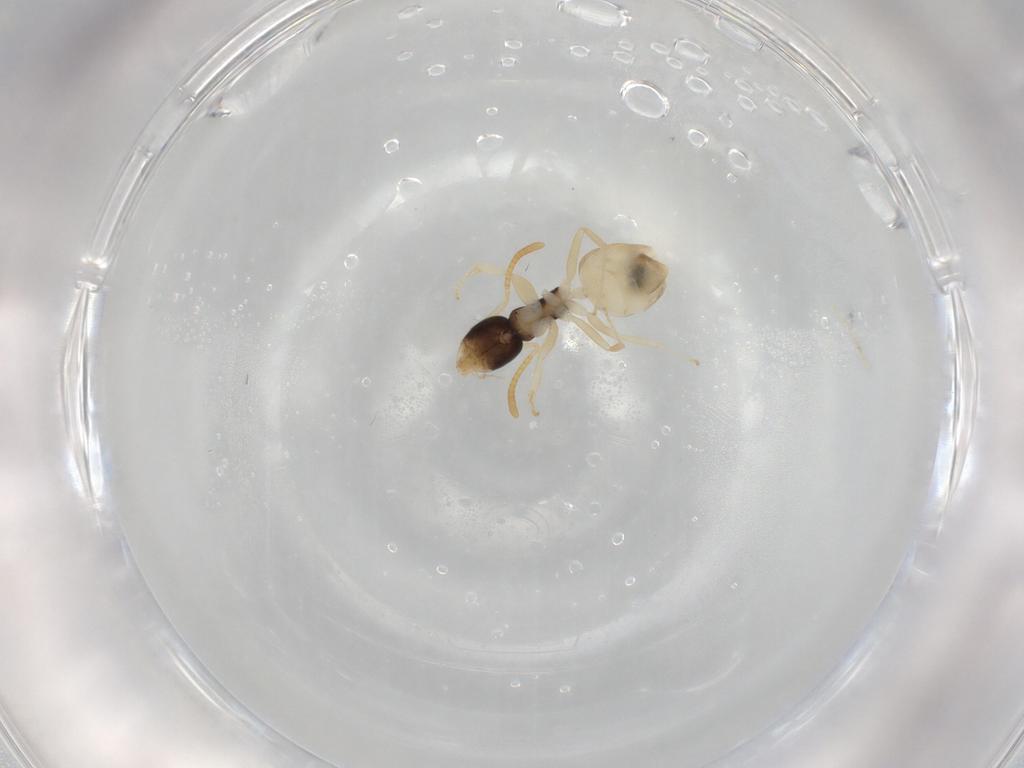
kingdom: Animalia
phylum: Arthropoda
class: Insecta
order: Hymenoptera
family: Formicidae
